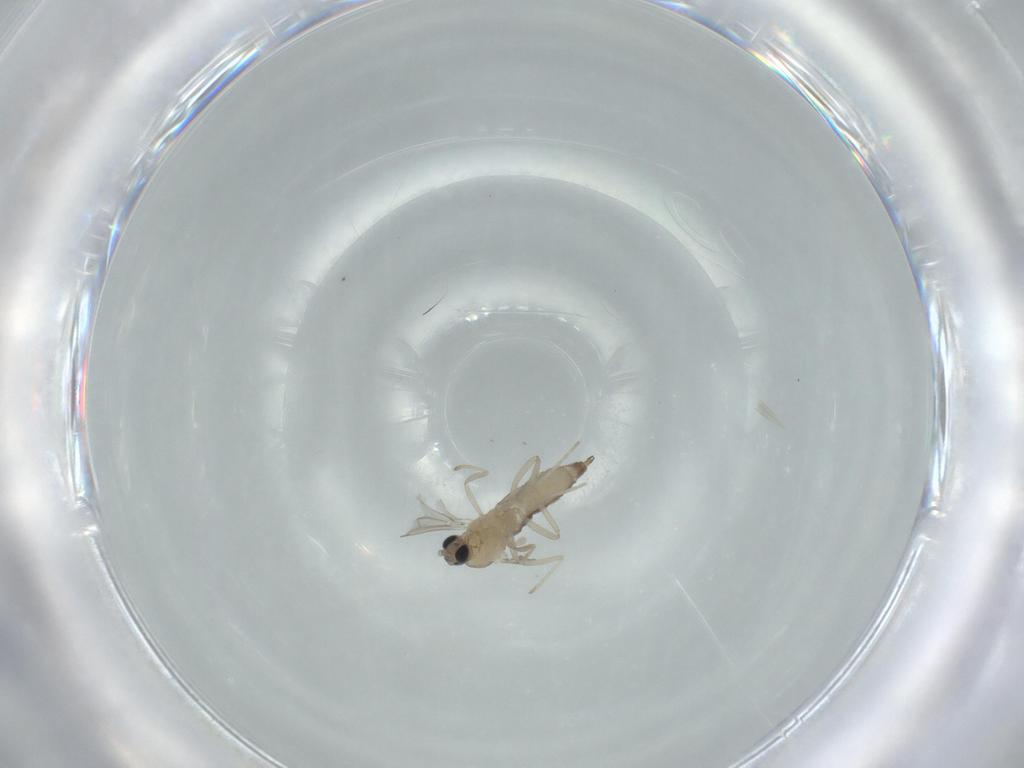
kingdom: Animalia
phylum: Arthropoda
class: Insecta
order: Diptera
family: Cecidomyiidae
